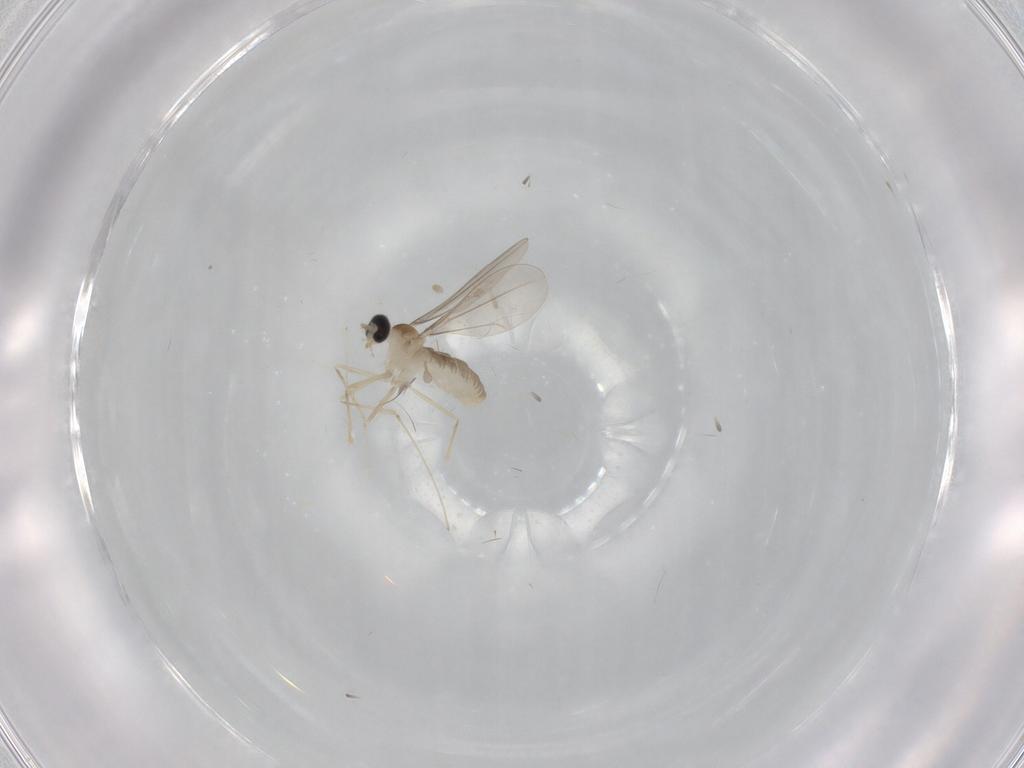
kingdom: Animalia
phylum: Arthropoda
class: Insecta
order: Diptera
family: Cecidomyiidae
